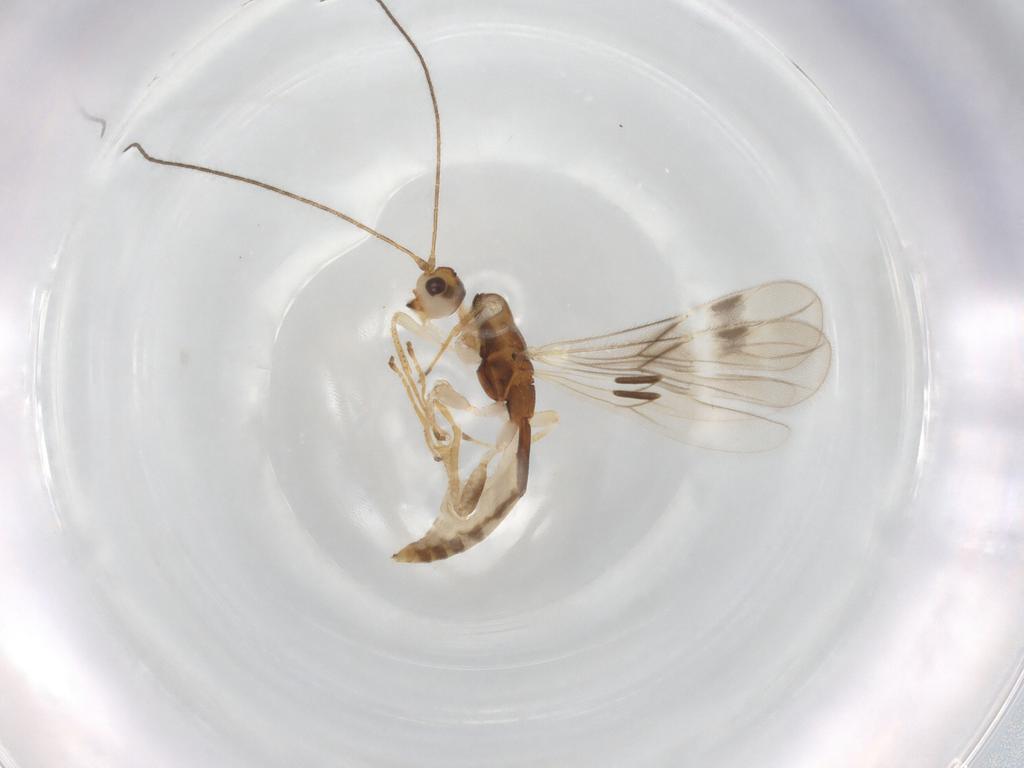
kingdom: Animalia
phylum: Arthropoda
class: Insecta
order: Hymenoptera
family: Braconidae
